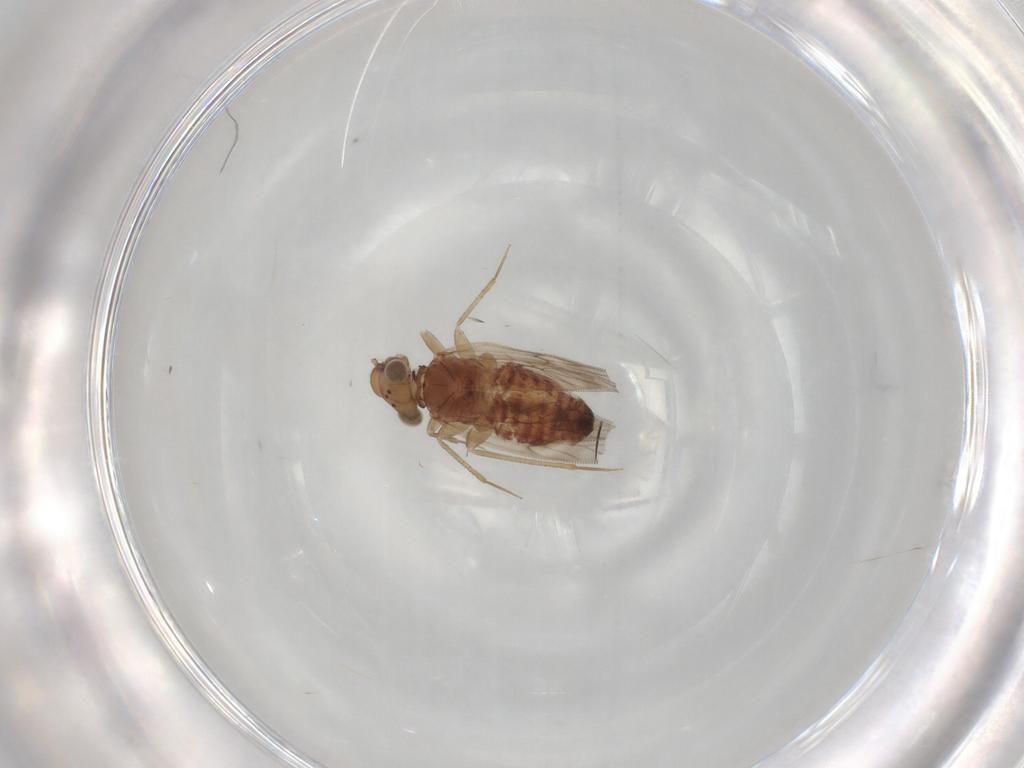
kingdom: Animalia
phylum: Arthropoda
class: Insecta
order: Psocodea
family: Lepidopsocidae
